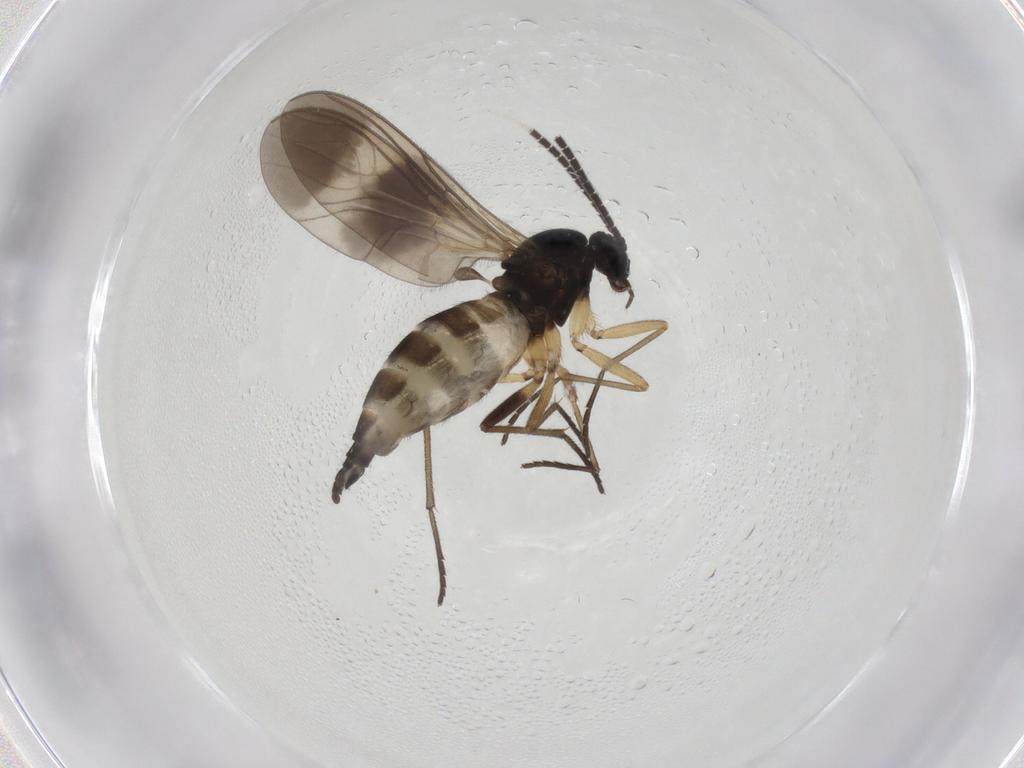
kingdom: Animalia
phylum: Arthropoda
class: Insecta
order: Diptera
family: Sciaridae
